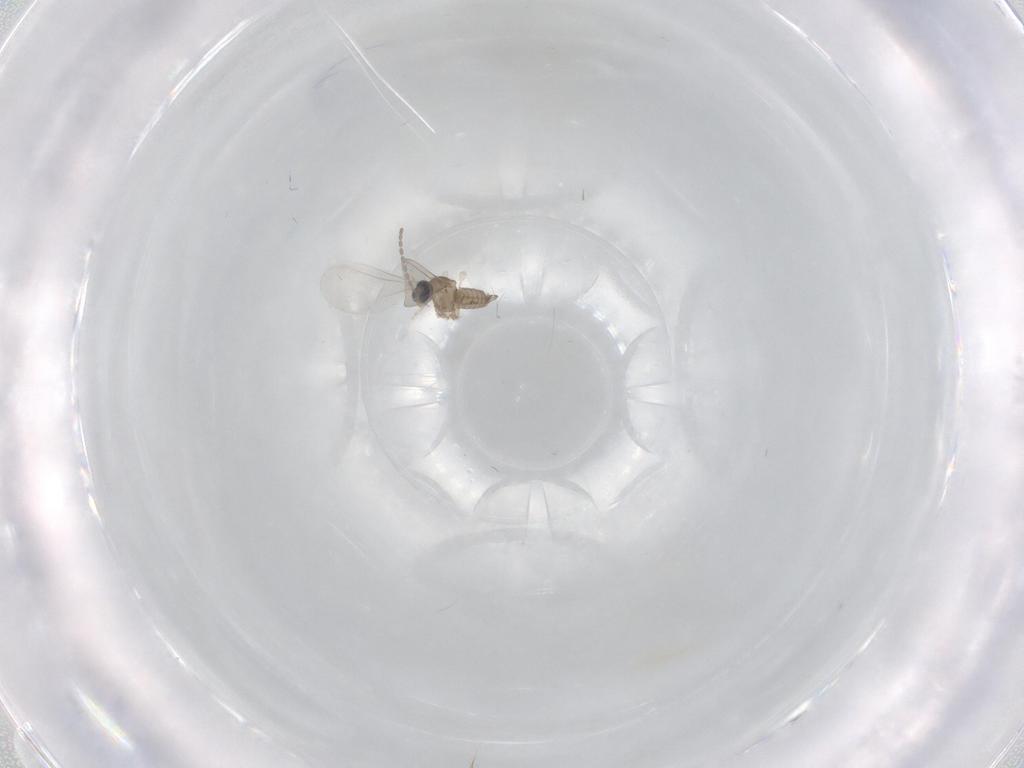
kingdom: Animalia
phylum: Arthropoda
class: Insecta
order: Diptera
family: Cecidomyiidae
